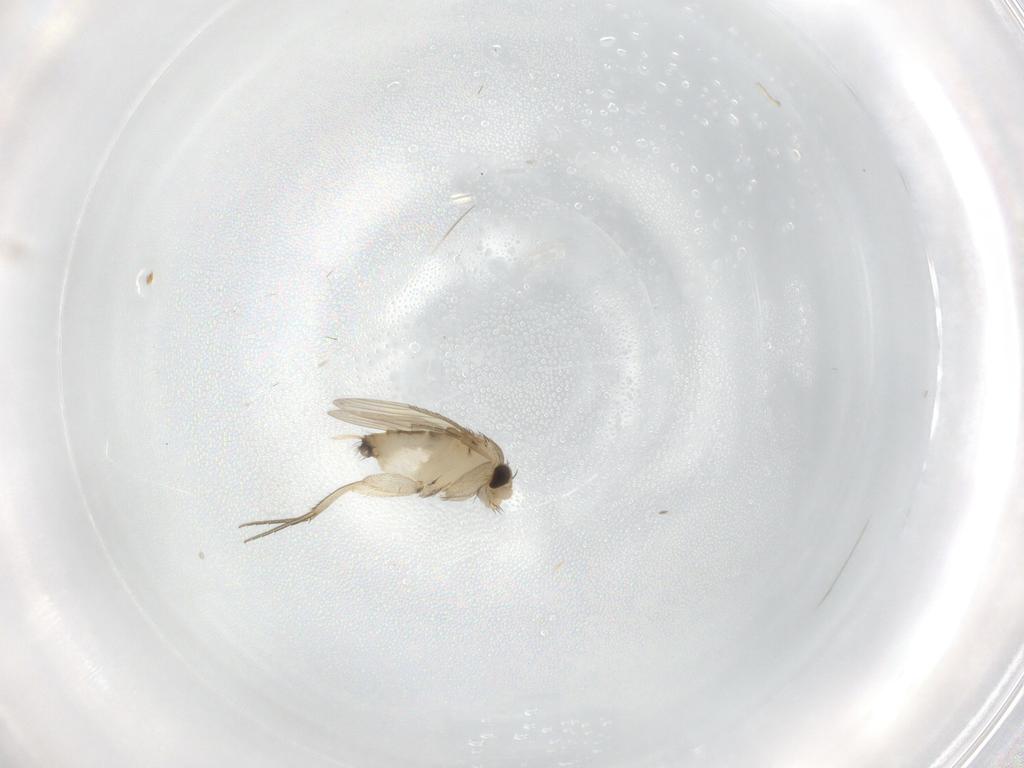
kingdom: Animalia
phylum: Arthropoda
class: Insecta
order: Diptera
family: Phoridae
